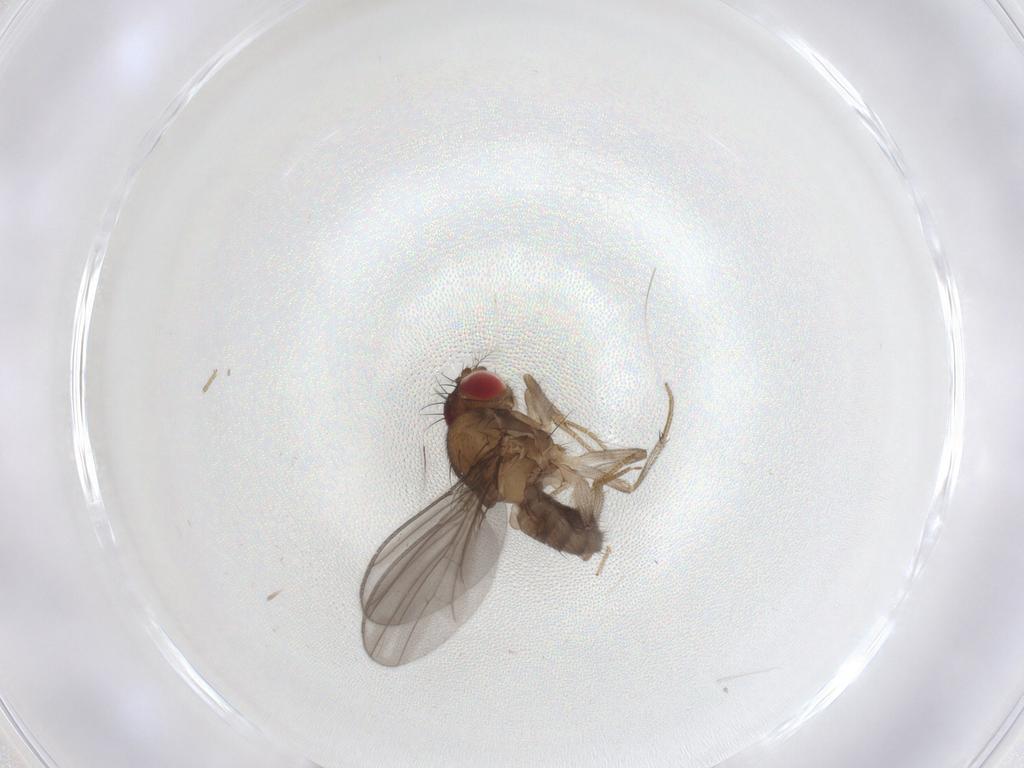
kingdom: Animalia
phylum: Arthropoda
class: Insecta
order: Diptera
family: Drosophilidae
